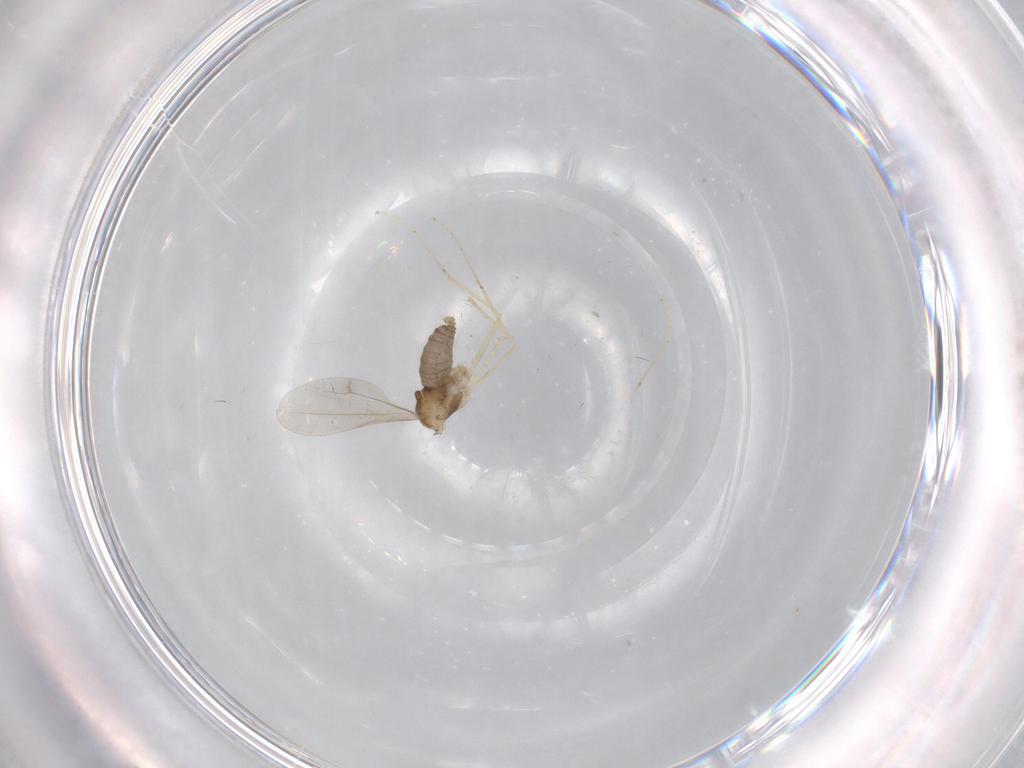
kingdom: Animalia
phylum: Arthropoda
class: Insecta
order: Diptera
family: Cecidomyiidae
